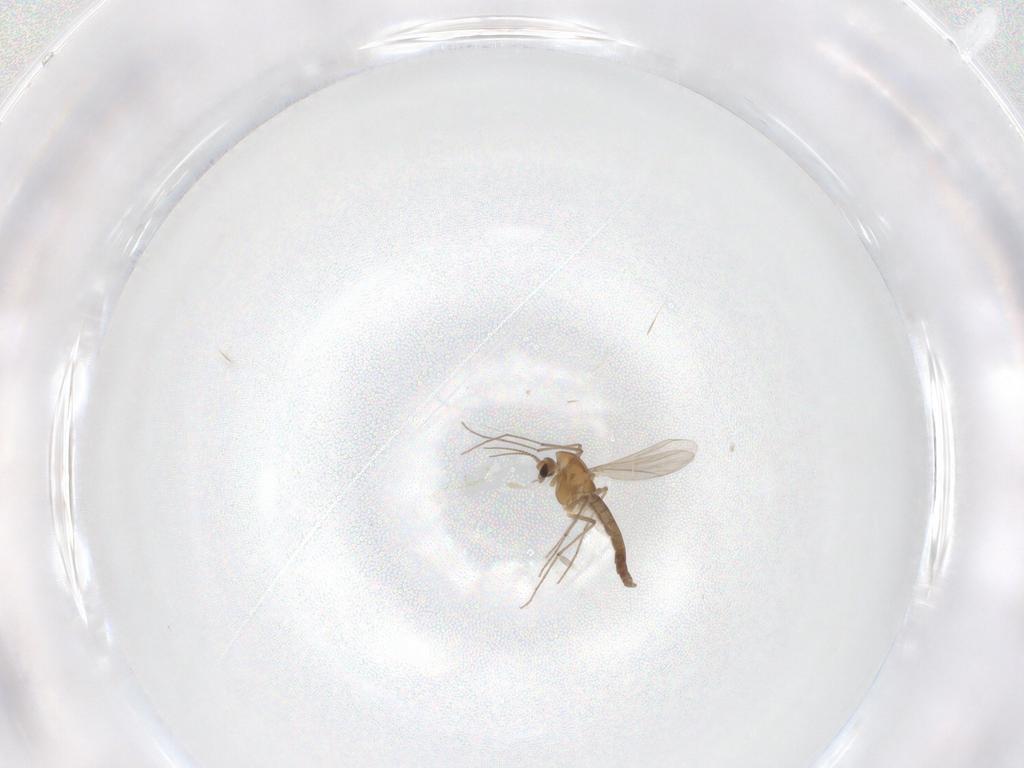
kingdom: Animalia
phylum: Arthropoda
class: Insecta
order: Diptera
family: Chironomidae
